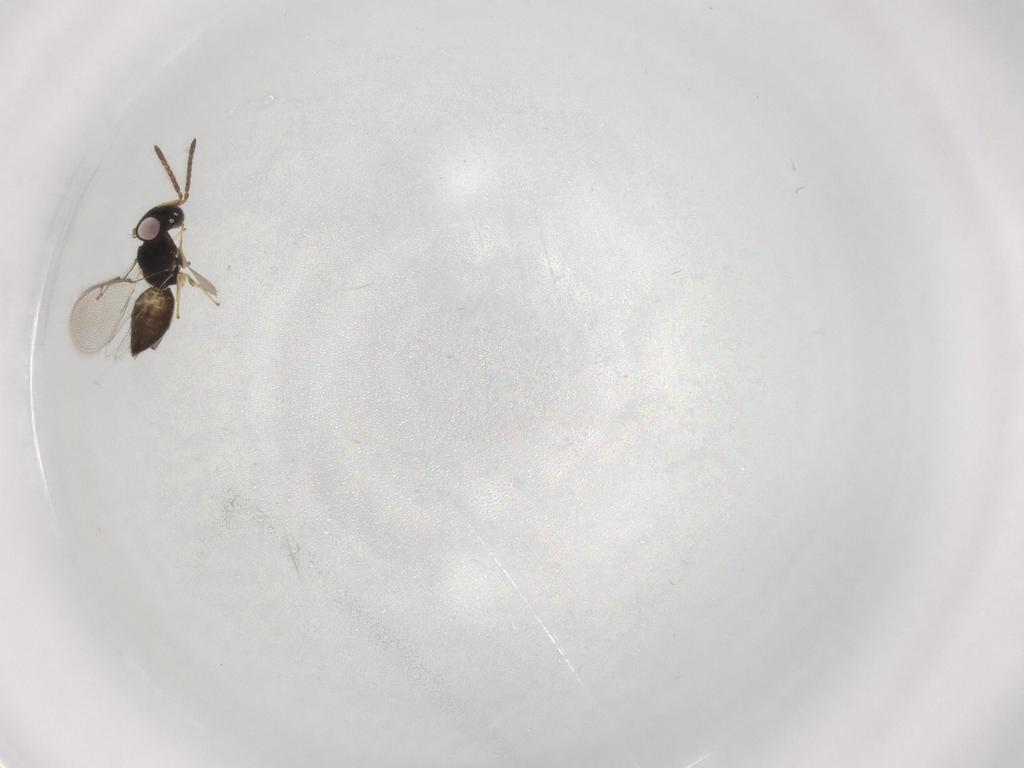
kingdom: Animalia
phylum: Arthropoda
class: Insecta
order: Hymenoptera
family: Pteromalidae
